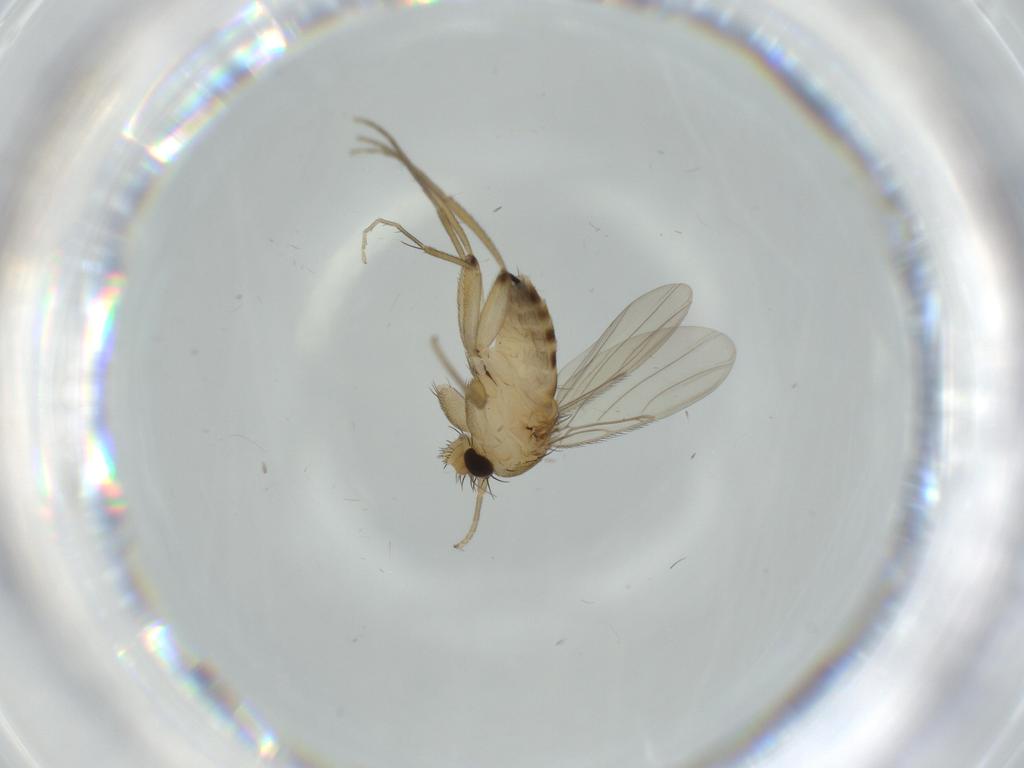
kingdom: Animalia
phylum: Arthropoda
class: Insecta
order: Diptera
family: Phoridae
